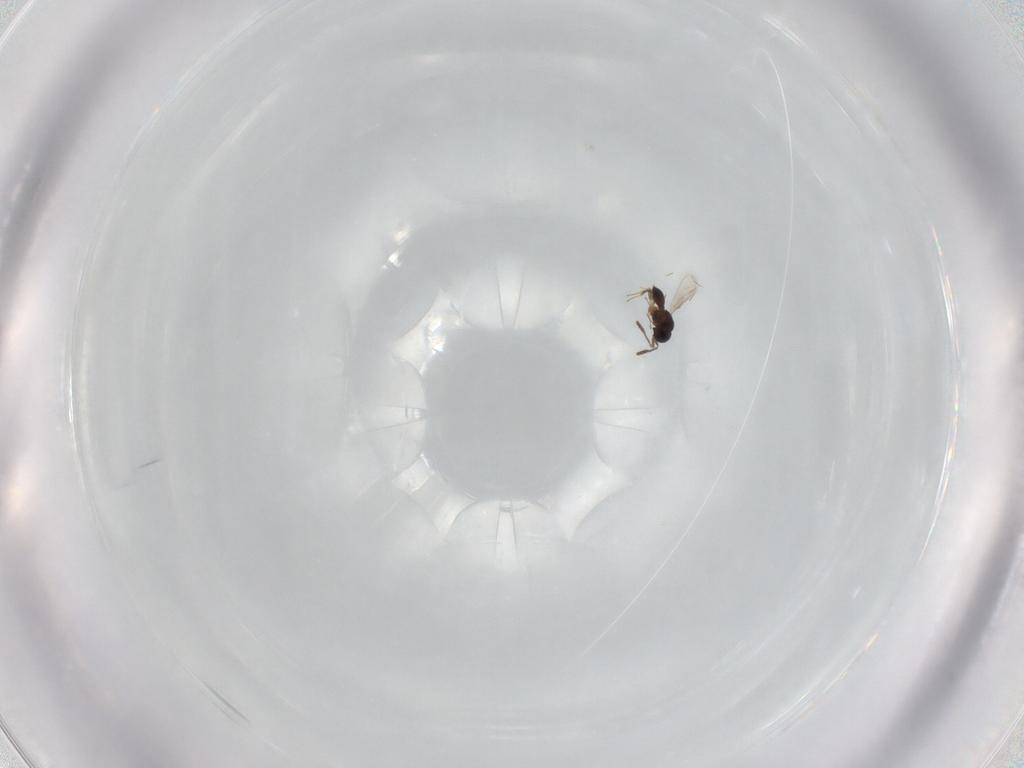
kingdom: Animalia
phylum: Arthropoda
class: Insecta
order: Hymenoptera
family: Scelionidae
